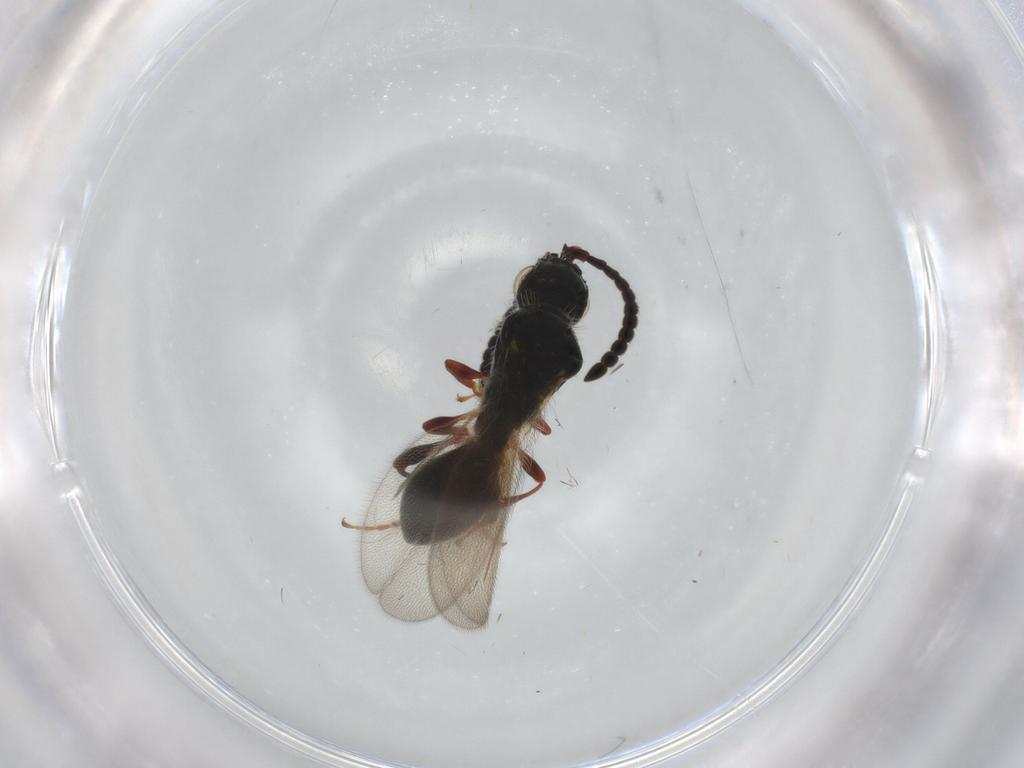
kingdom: Animalia
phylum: Arthropoda
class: Insecta
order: Hymenoptera
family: Diapriidae
